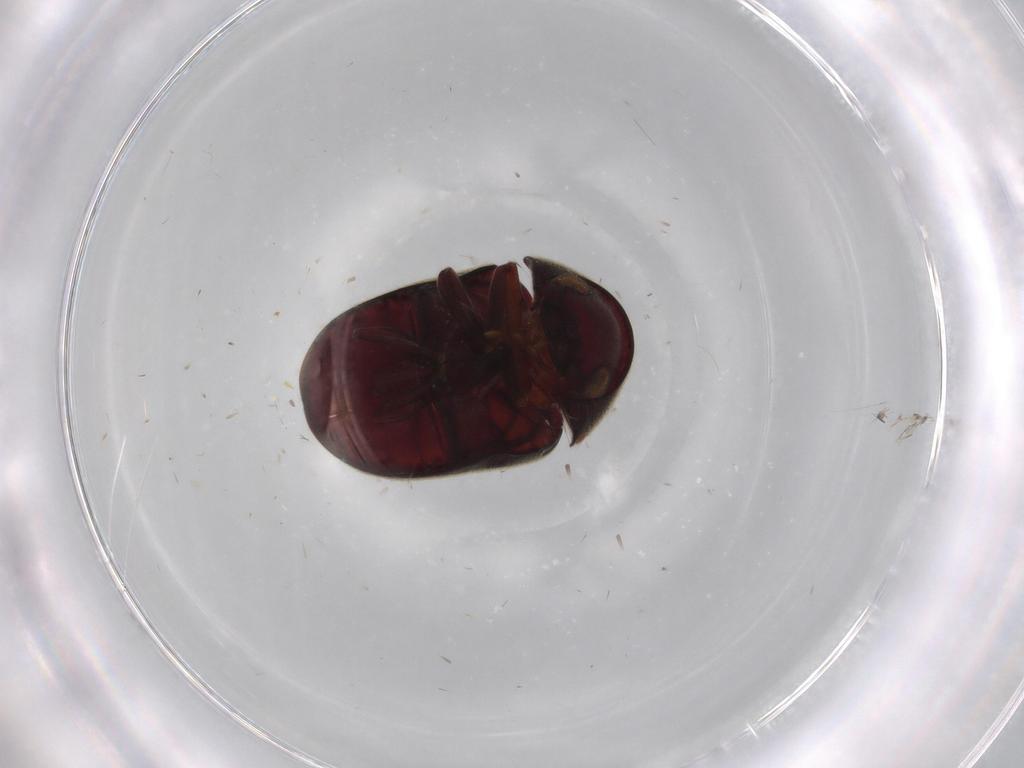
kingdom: Animalia
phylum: Arthropoda
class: Insecta
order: Coleoptera
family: Ptinidae
